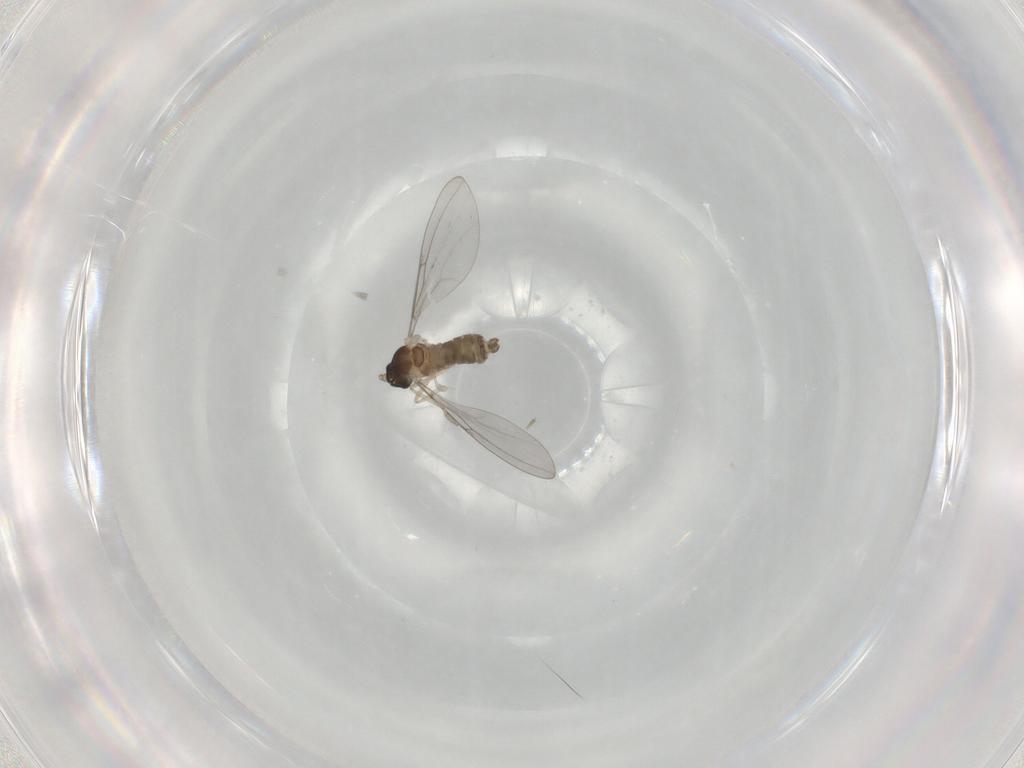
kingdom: Animalia
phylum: Arthropoda
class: Insecta
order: Diptera
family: Cecidomyiidae
